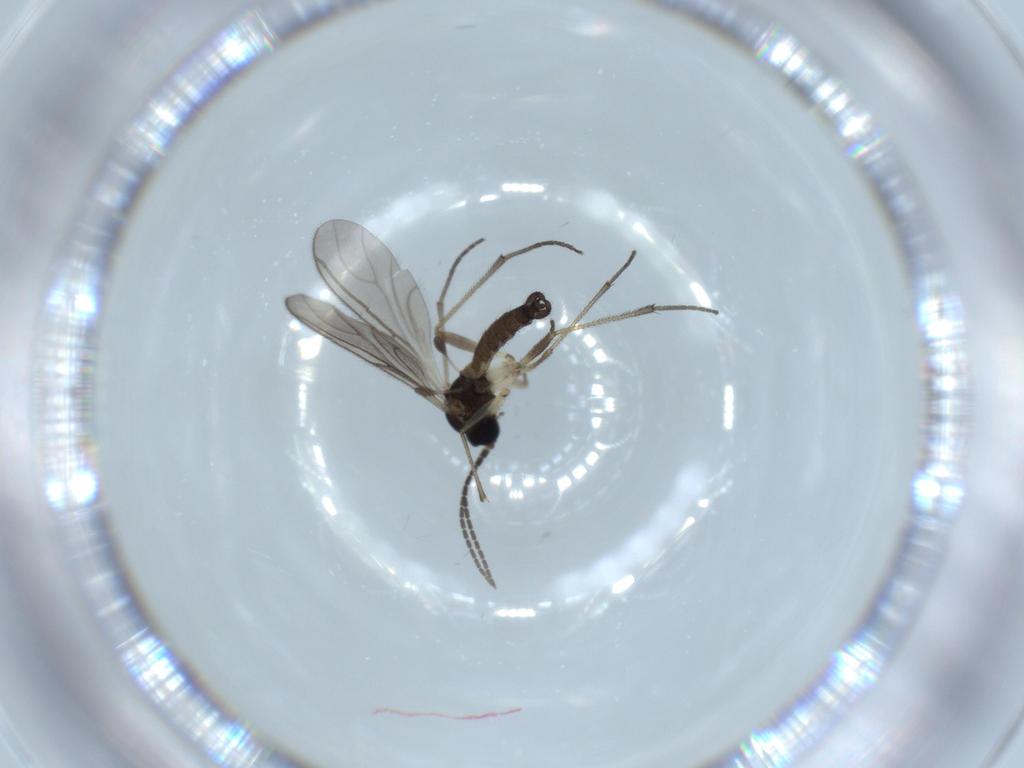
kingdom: Animalia
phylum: Arthropoda
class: Insecta
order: Diptera
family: Sciaridae
